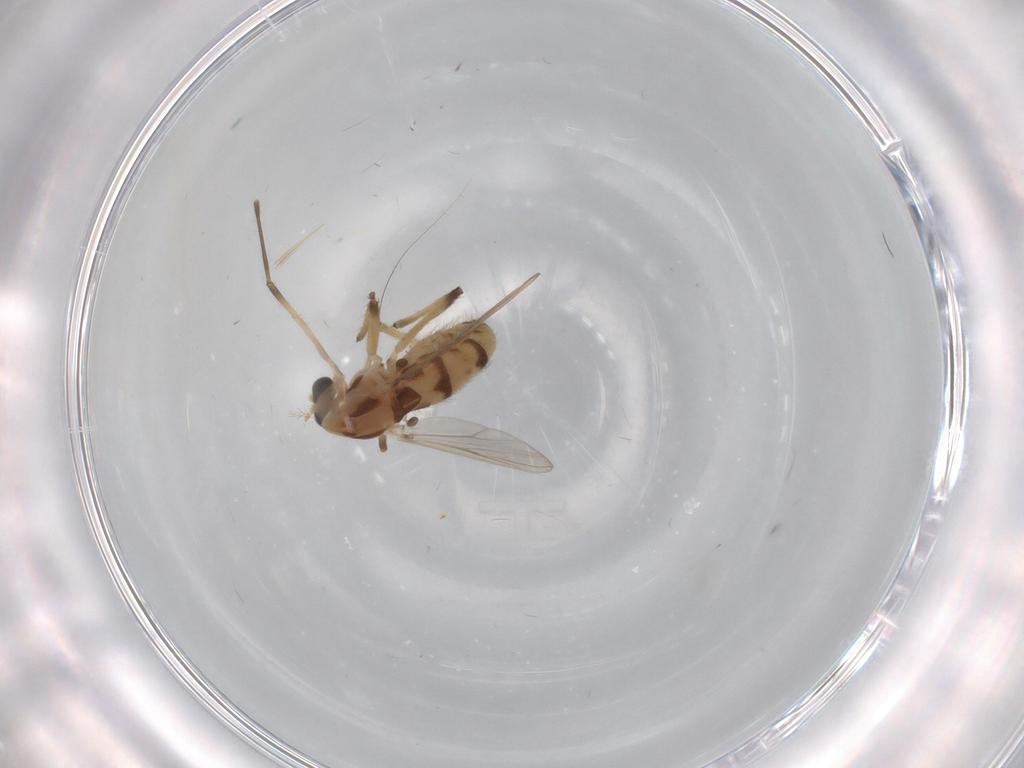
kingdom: Animalia
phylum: Arthropoda
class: Insecta
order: Diptera
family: Chironomidae
